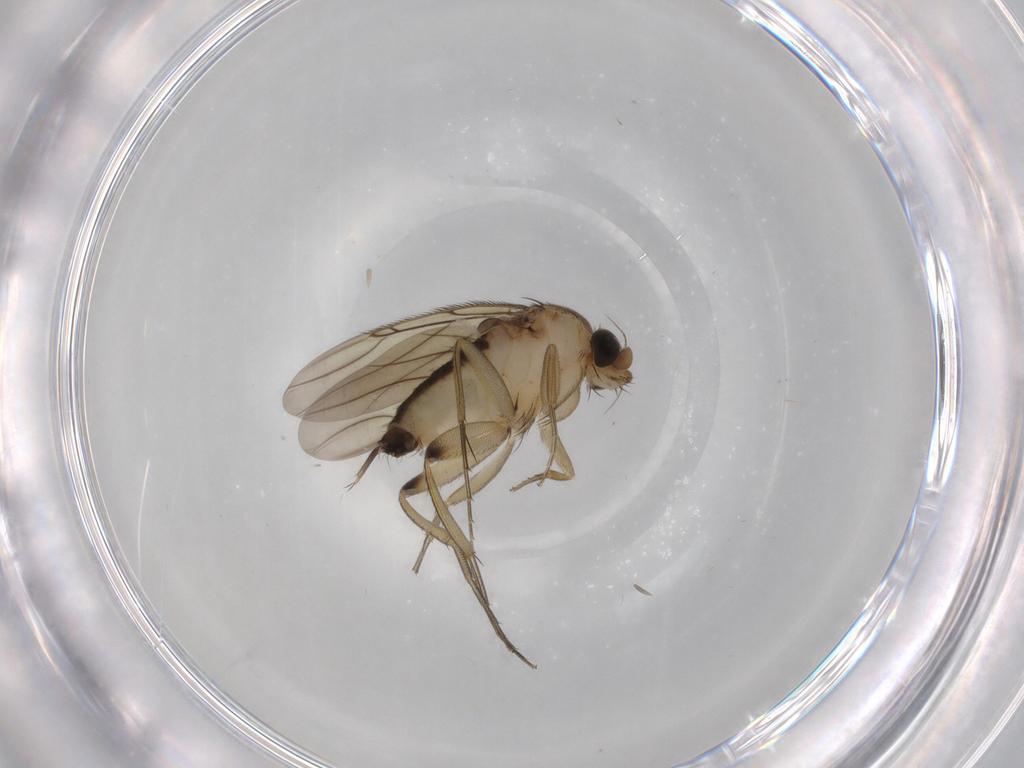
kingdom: Animalia
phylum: Arthropoda
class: Insecta
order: Diptera
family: Phoridae
